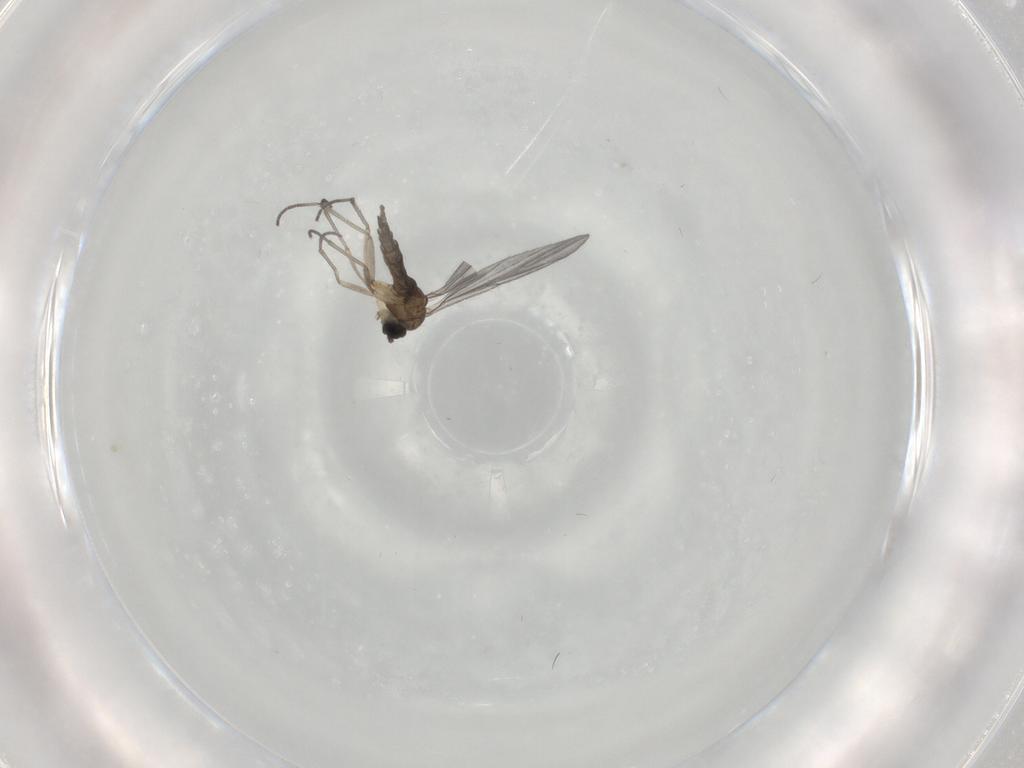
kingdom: Animalia
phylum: Arthropoda
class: Insecta
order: Diptera
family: Sciaridae
